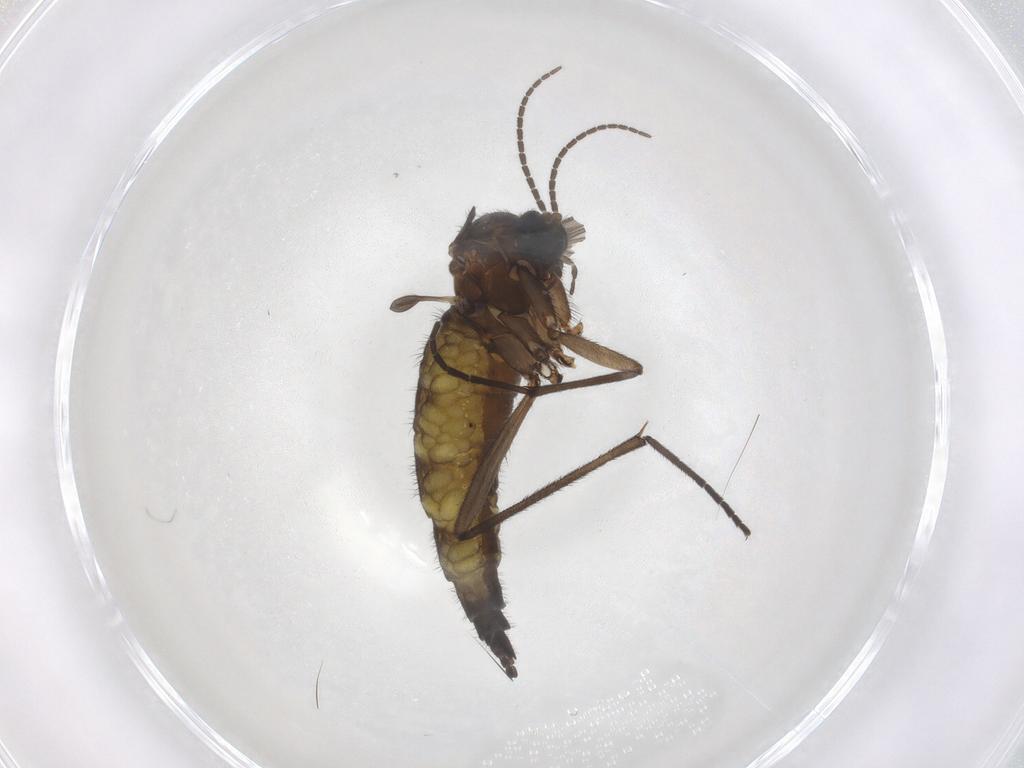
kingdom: Animalia
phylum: Arthropoda
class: Insecta
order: Diptera
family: Sciaridae
